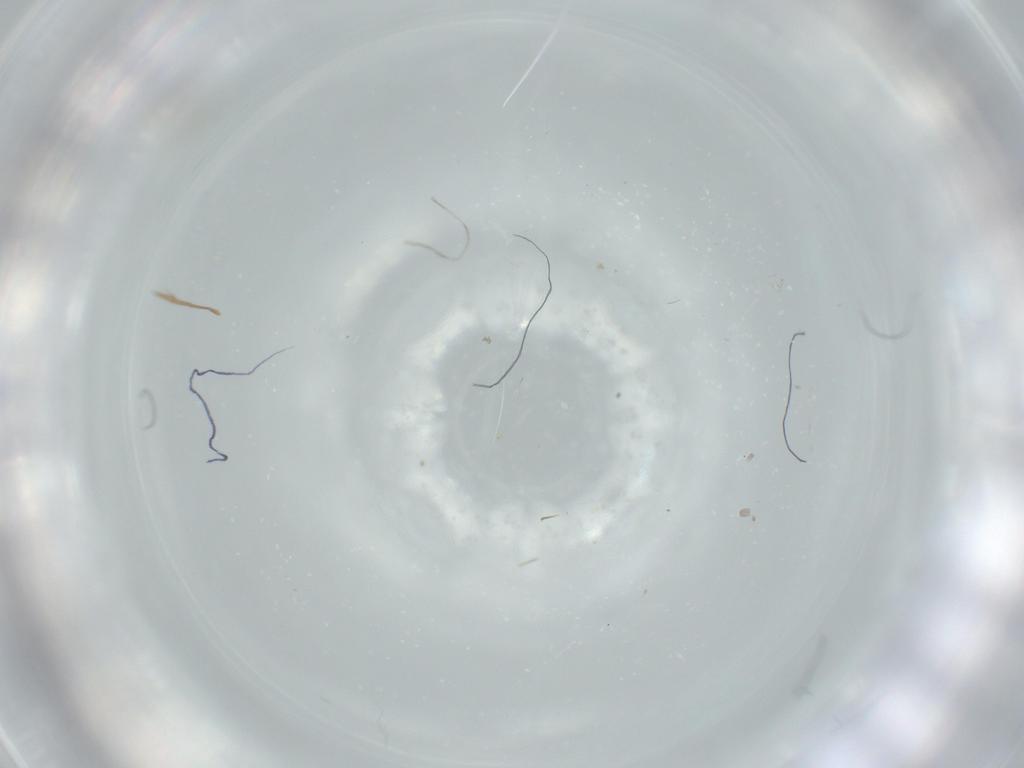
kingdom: Animalia
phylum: Arthropoda
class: Insecta
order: Diptera
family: Cecidomyiidae
